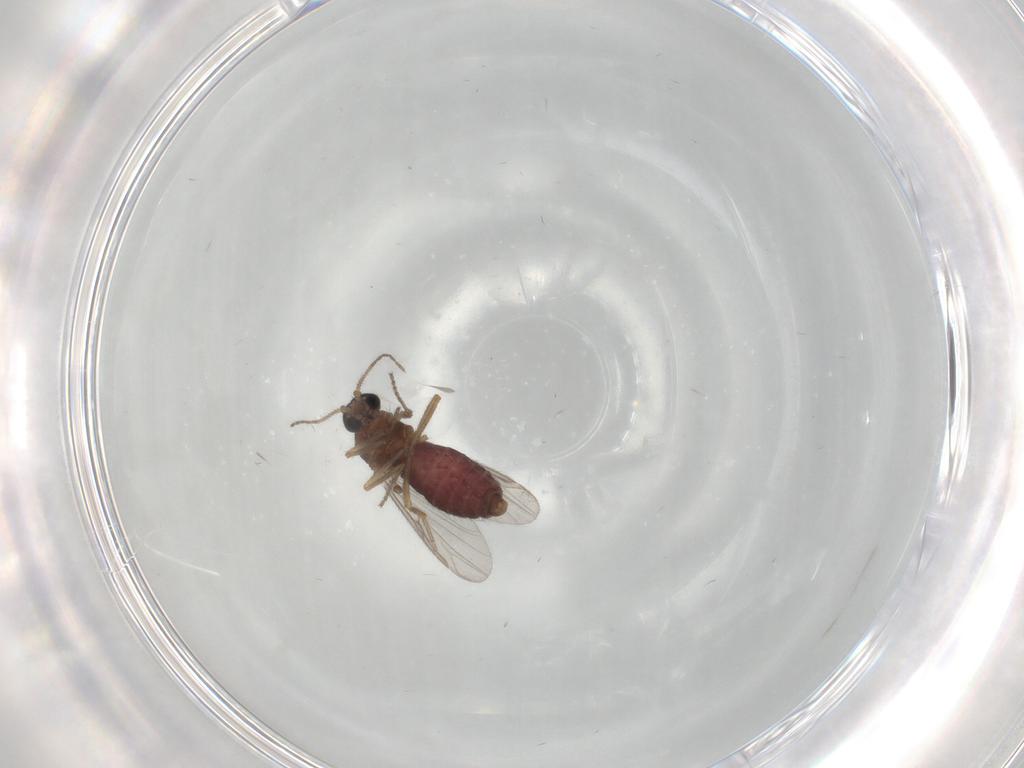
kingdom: Animalia
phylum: Arthropoda
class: Insecta
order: Diptera
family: Ceratopogonidae
